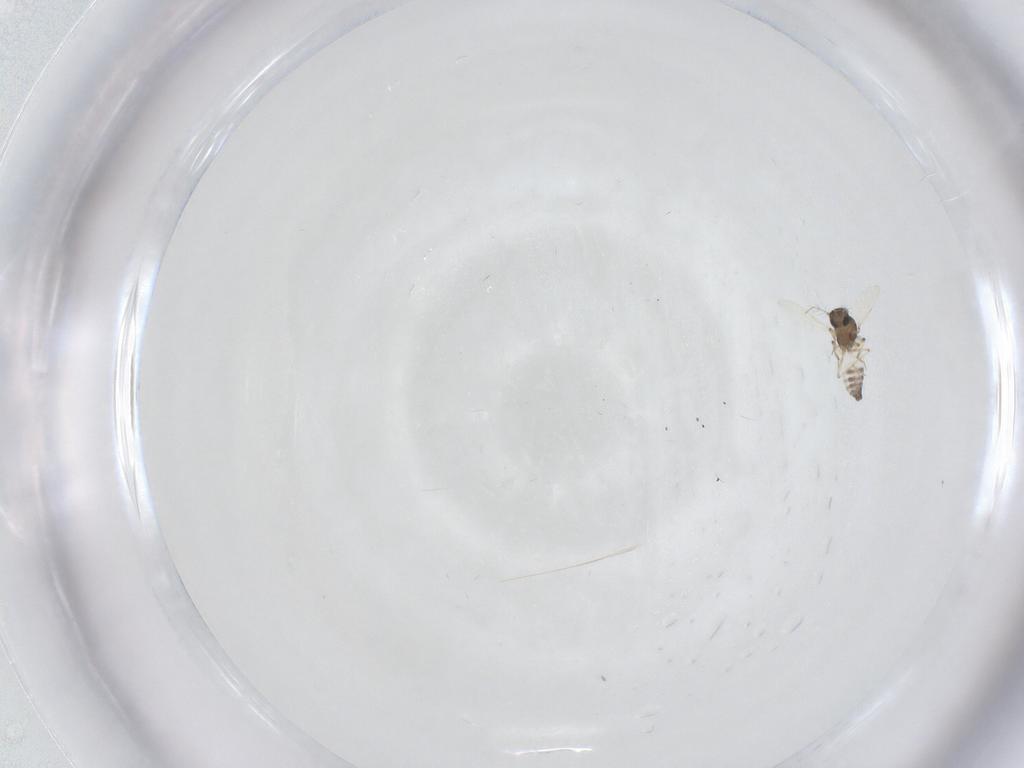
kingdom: Animalia
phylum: Arthropoda
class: Insecta
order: Diptera
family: Ceratopogonidae
